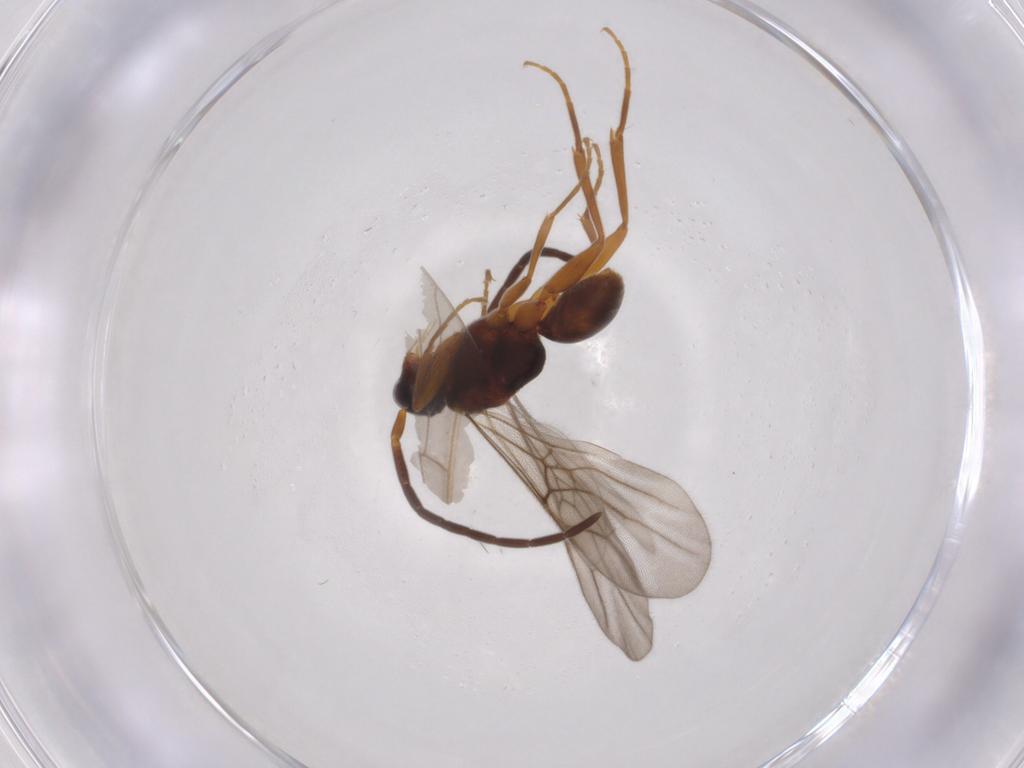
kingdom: Animalia
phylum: Arthropoda
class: Insecta
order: Hymenoptera
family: Embolemidae
